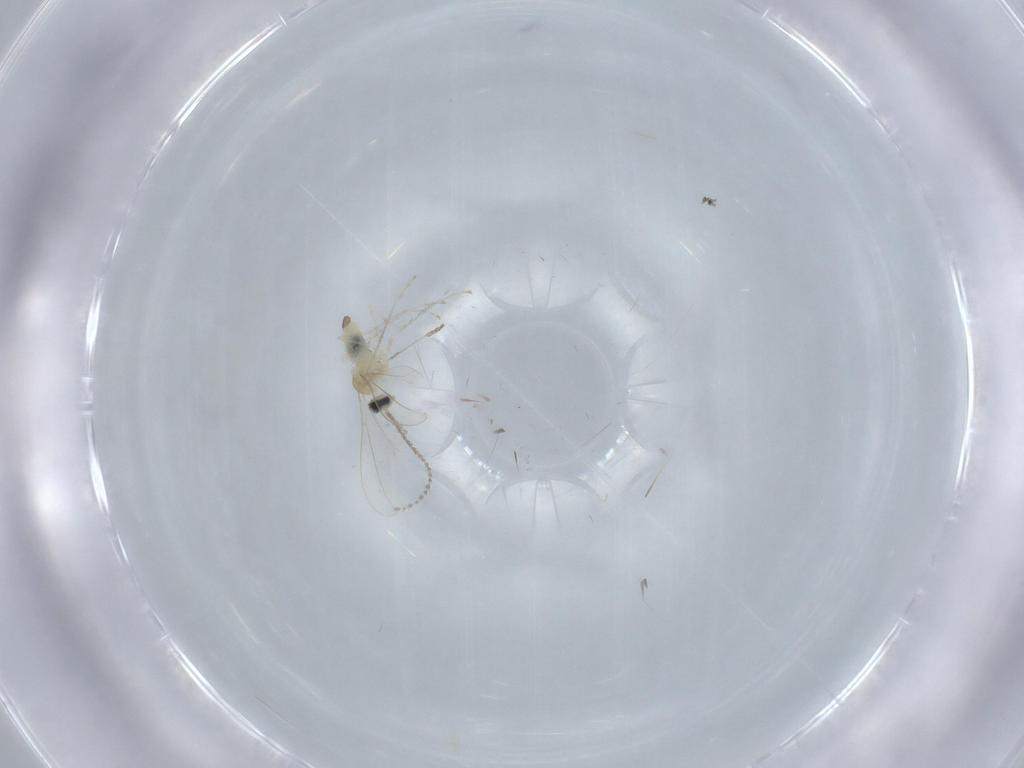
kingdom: Animalia
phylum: Arthropoda
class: Insecta
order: Diptera
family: Cecidomyiidae
